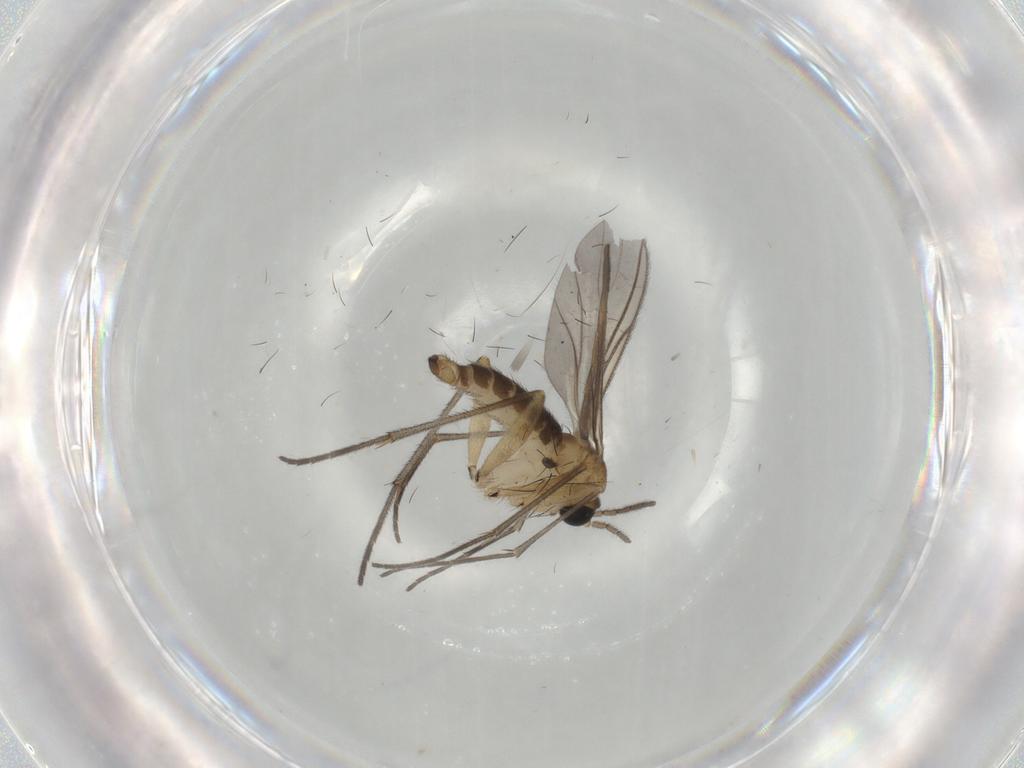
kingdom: Animalia
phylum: Arthropoda
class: Insecta
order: Diptera
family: Sciaridae
